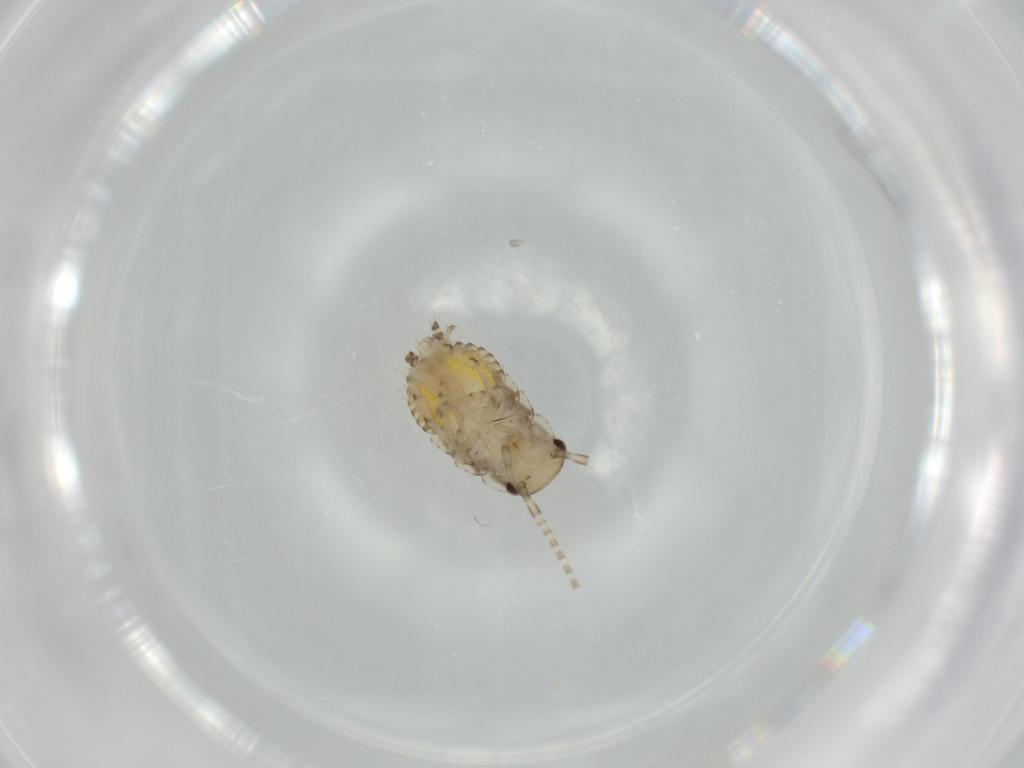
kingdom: Animalia
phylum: Arthropoda
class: Insecta
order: Blattodea
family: Ectobiidae
